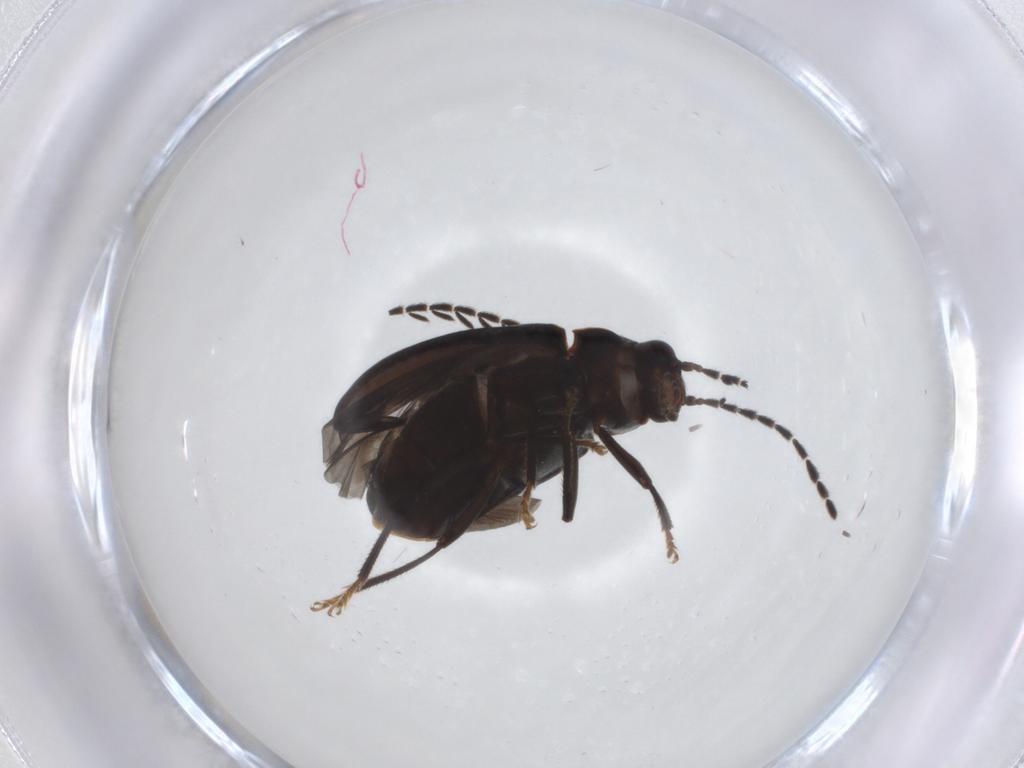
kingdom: Animalia
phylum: Arthropoda
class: Insecta
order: Coleoptera
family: Ptilodactylidae
